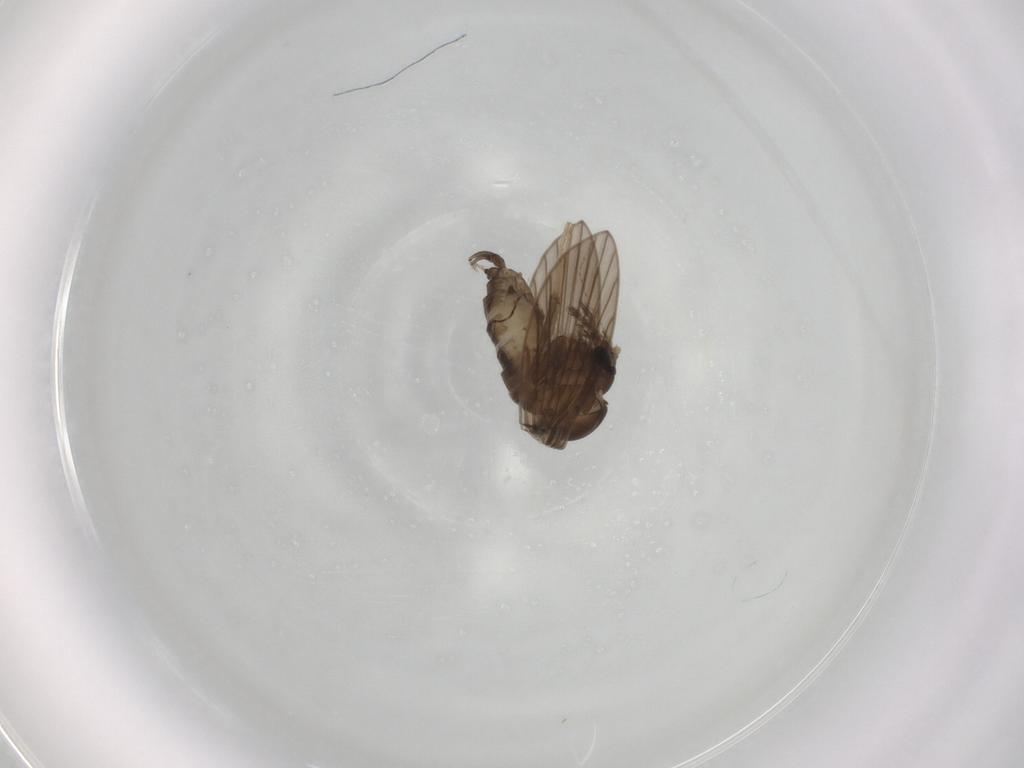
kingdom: Animalia
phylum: Arthropoda
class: Insecta
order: Diptera
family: Psychodidae
